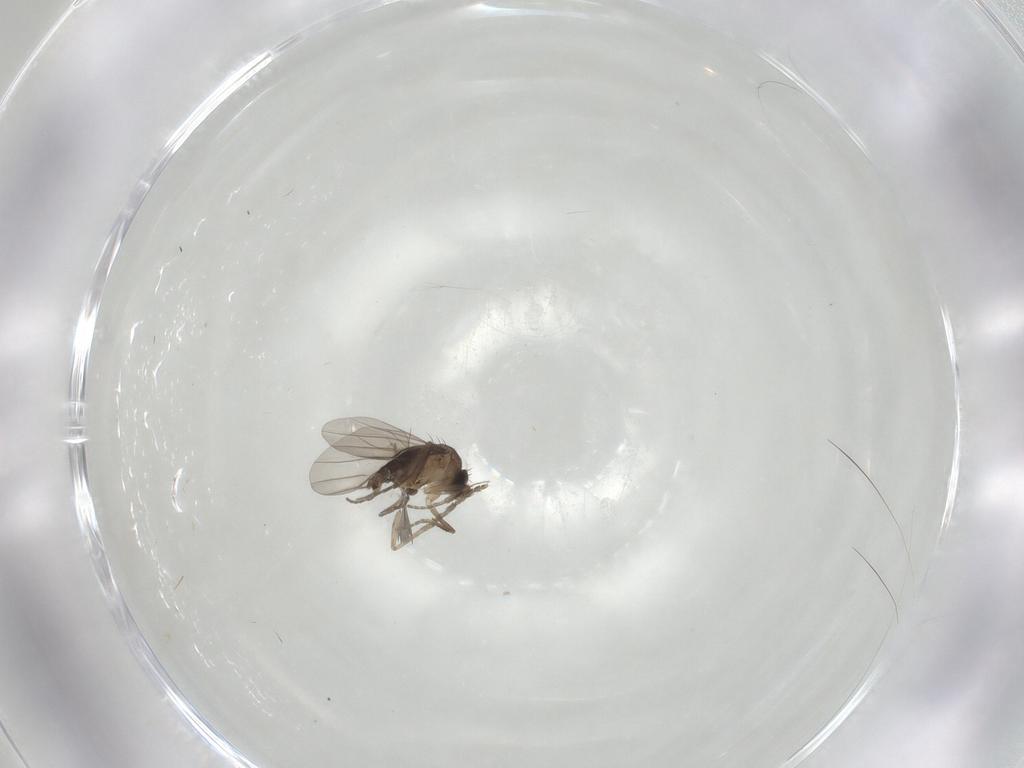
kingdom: Animalia
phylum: Arthropoda
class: Insecta
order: Diptera
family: Phoridae
